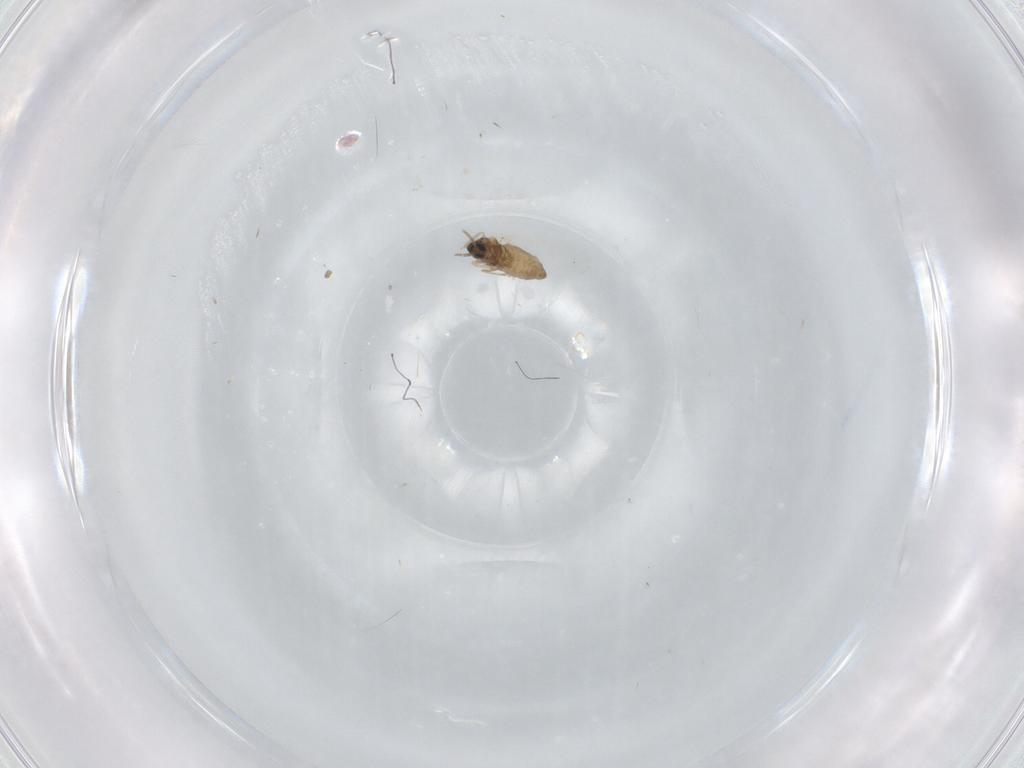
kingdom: Animalia
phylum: Arthropoda
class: Insecta
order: Diptera
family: Cecidomyiidae
